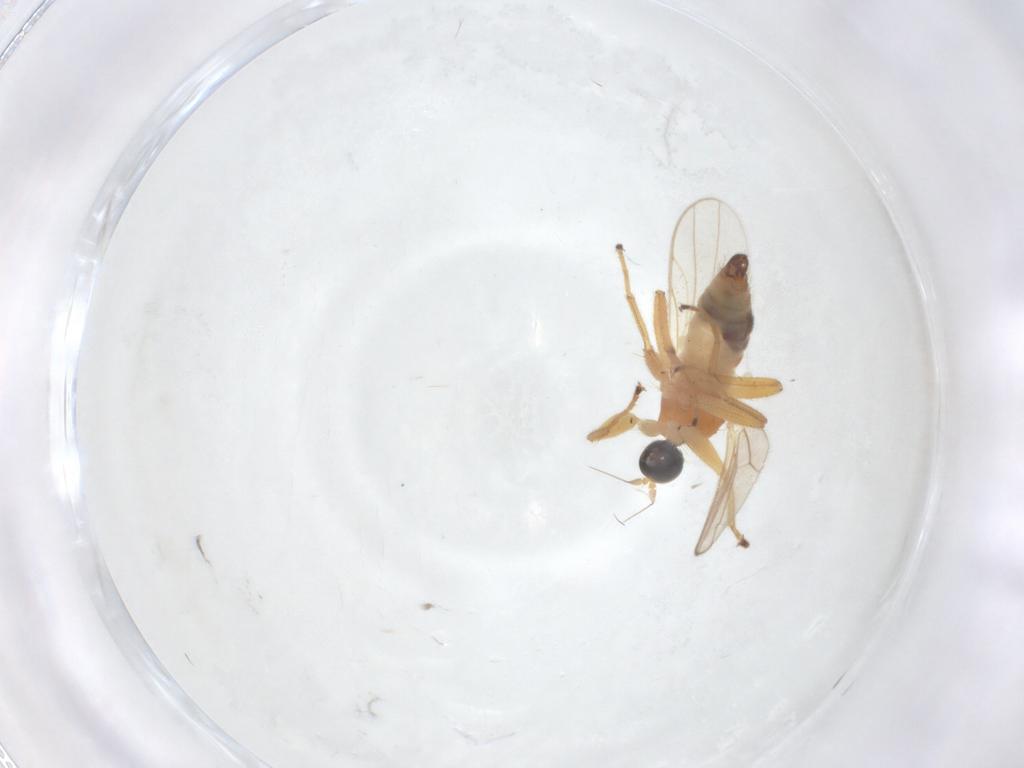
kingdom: Animalia
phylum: Arthropoda
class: Insecta
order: Diptera
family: Hybotidae
